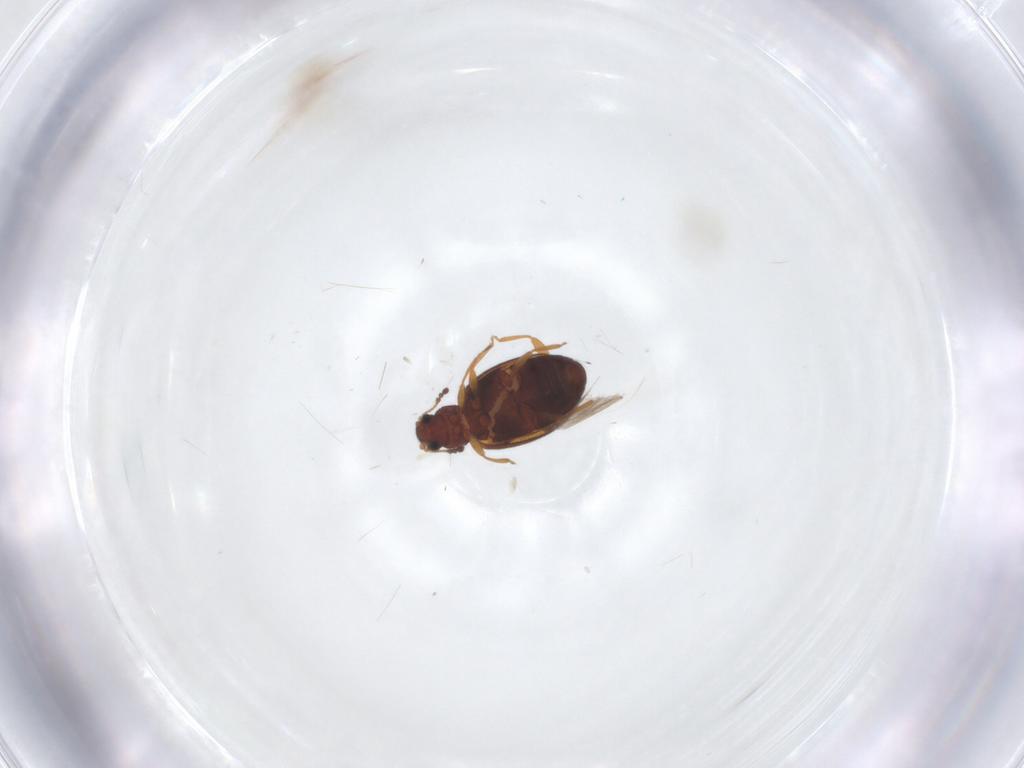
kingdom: Animalia
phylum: Arthropoda
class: Insecta
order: Coleoptera
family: Latridiidae
